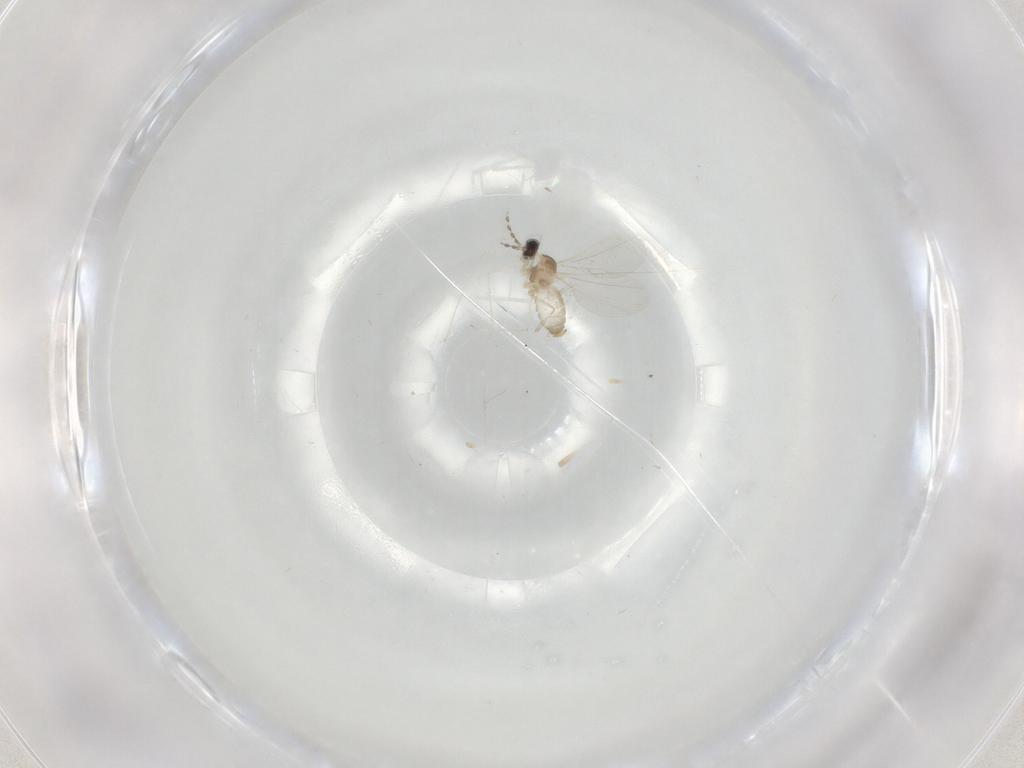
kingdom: Animalia
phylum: Arthropoda
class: Insecta
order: Diptera
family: Cecidomyiidae
